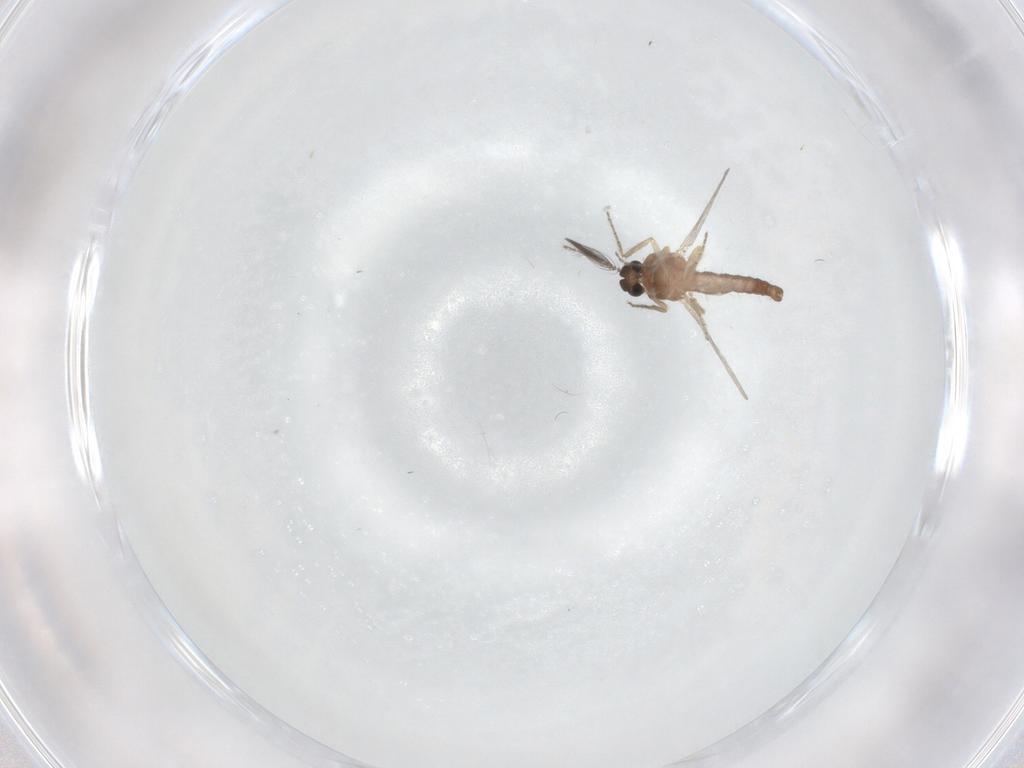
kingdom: Animalia
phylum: Arthropoda
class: Insecta
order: Diptera
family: Ceratopogonidae
